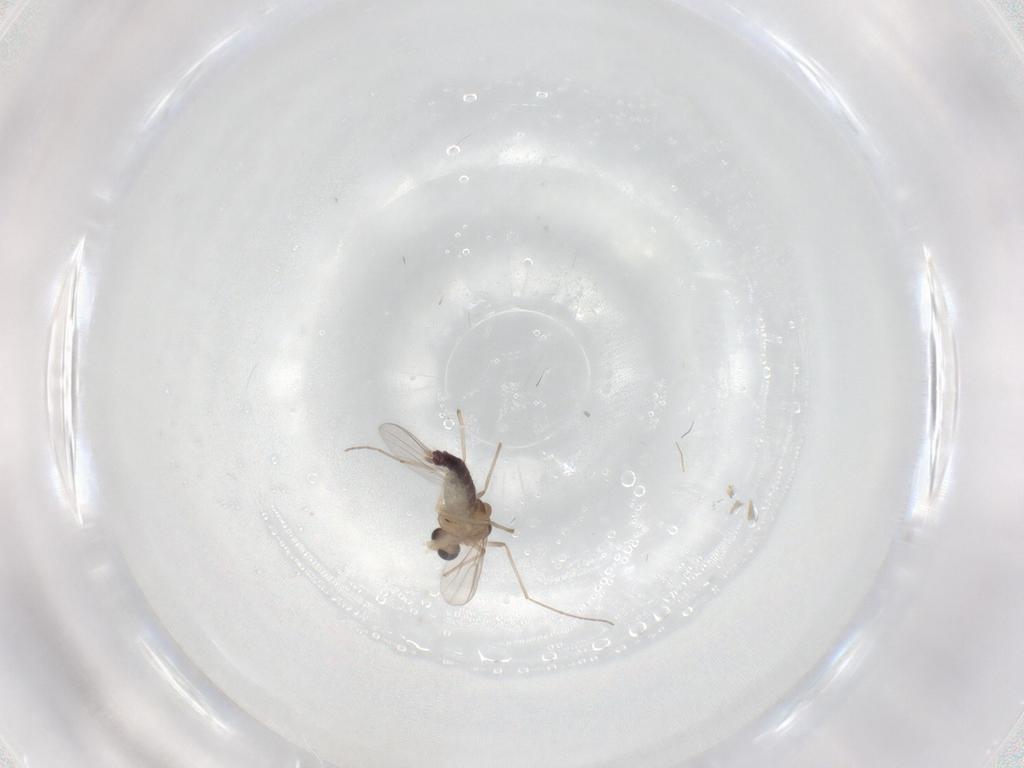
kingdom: Animalia
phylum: Arthropoda
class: Insecta
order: Diptera
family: Chironomidae
